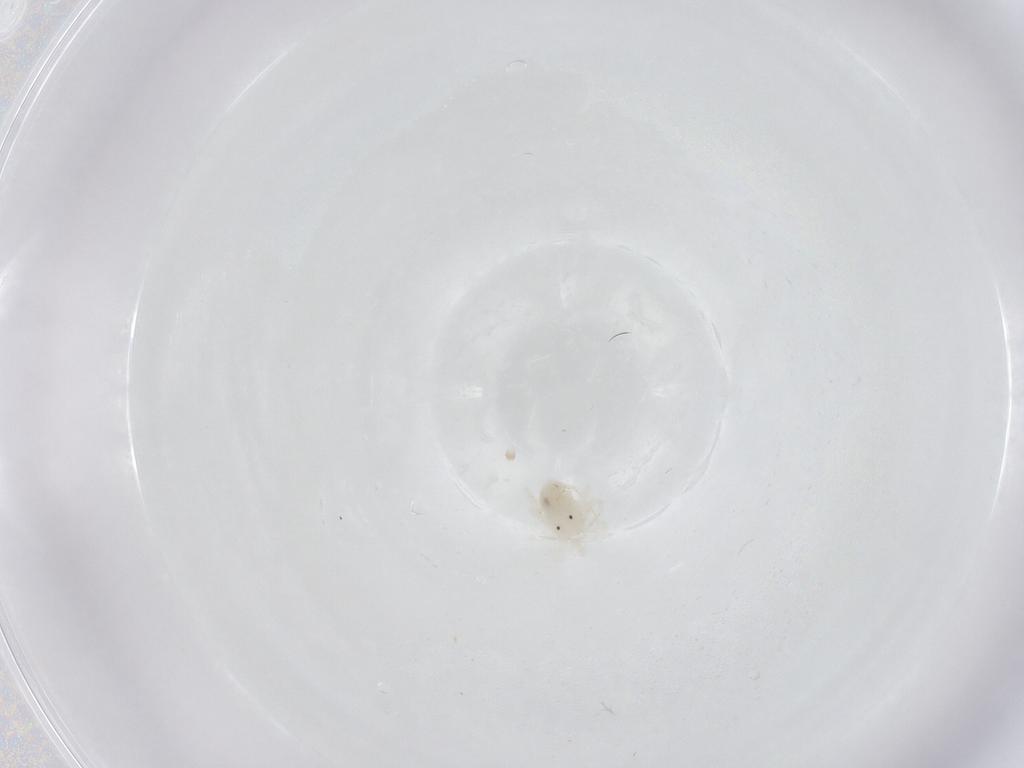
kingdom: Animalia
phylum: Arthropoda
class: Arachnida
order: Trombidiformes
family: Anystidae
